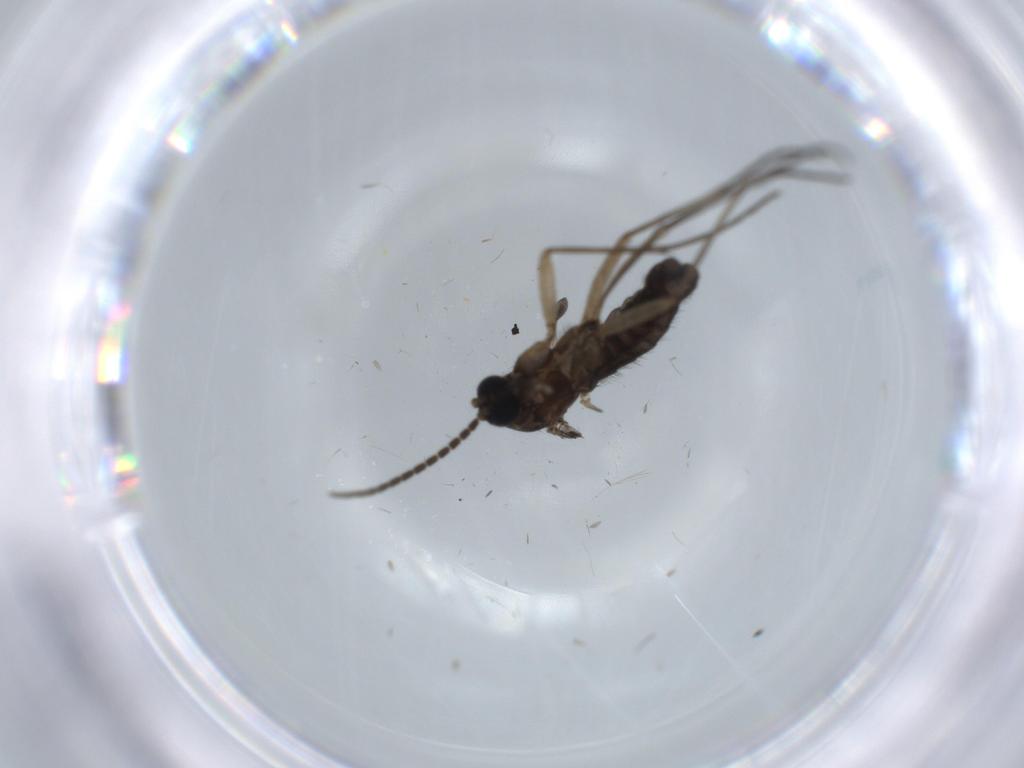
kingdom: Animalia
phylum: Arthropoda
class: Insecta
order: Diptera
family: Sciaridae
